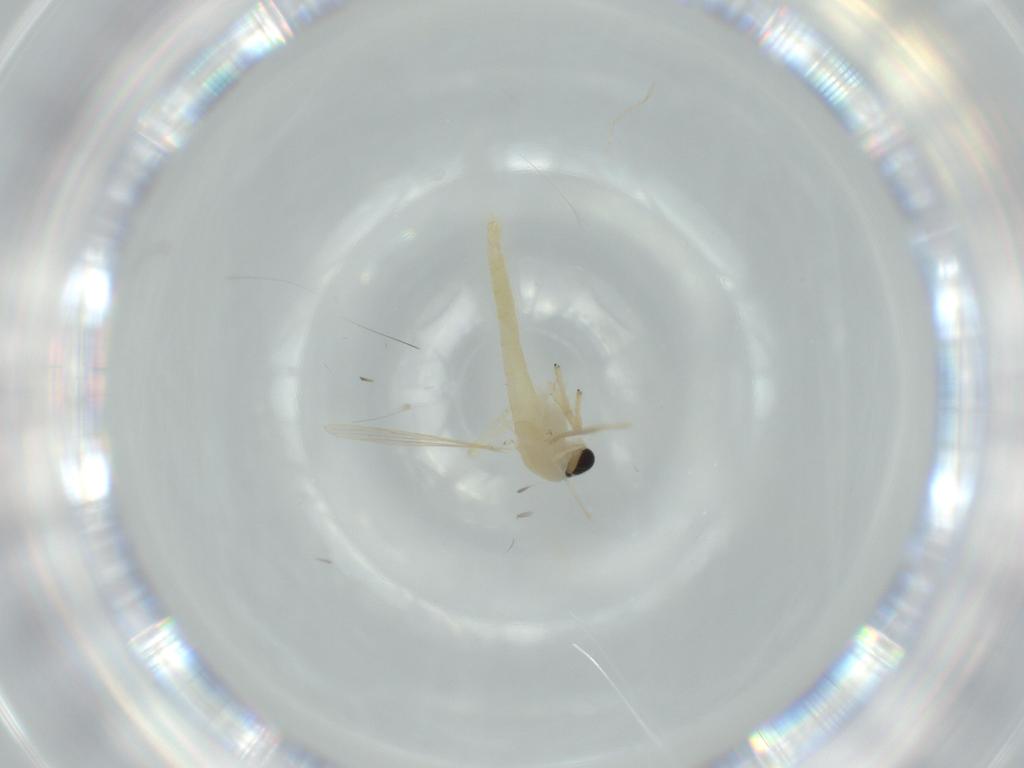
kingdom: Animalia
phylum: Arthropoda
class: Insecta
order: Diptera
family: Chironomidae
